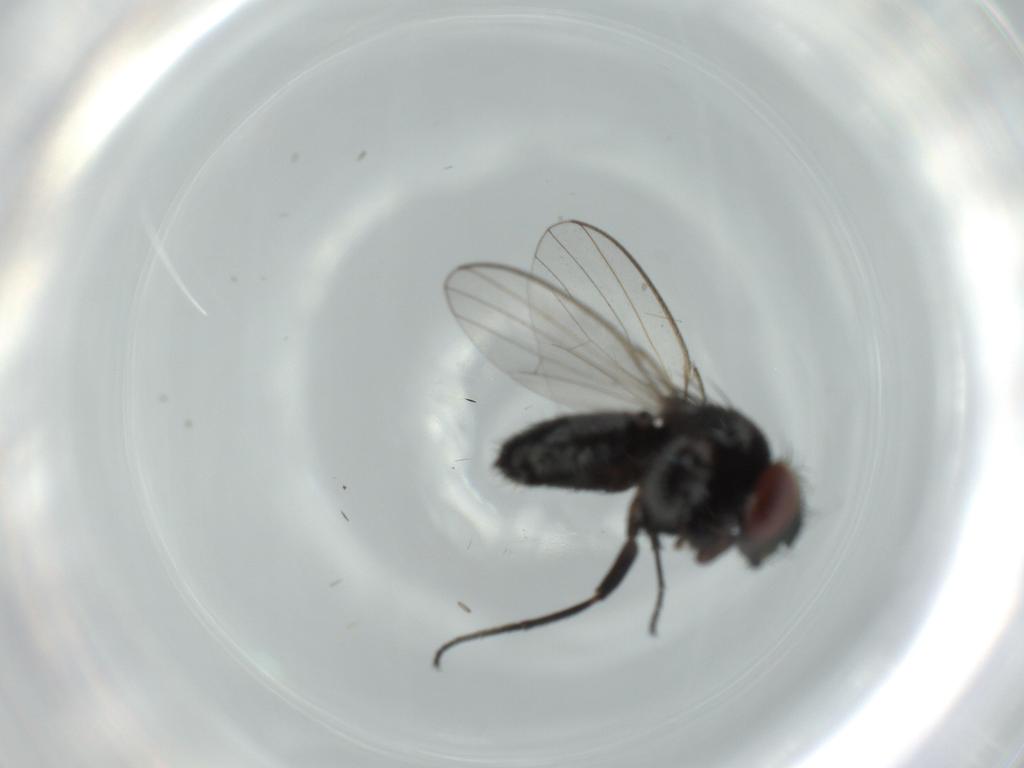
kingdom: Animalia
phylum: Arthropoda
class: Insecta
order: Diptera
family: Milichiidae
